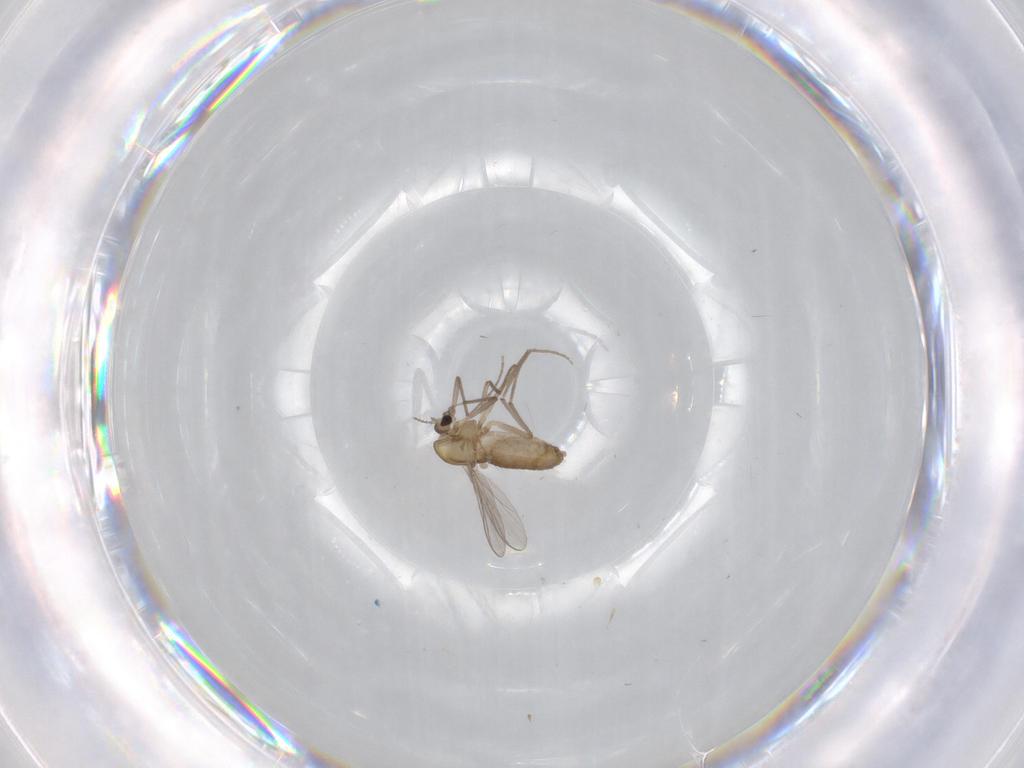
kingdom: Animalia
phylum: Arthropoda
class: Insecta
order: Diptera
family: Chironomidae
